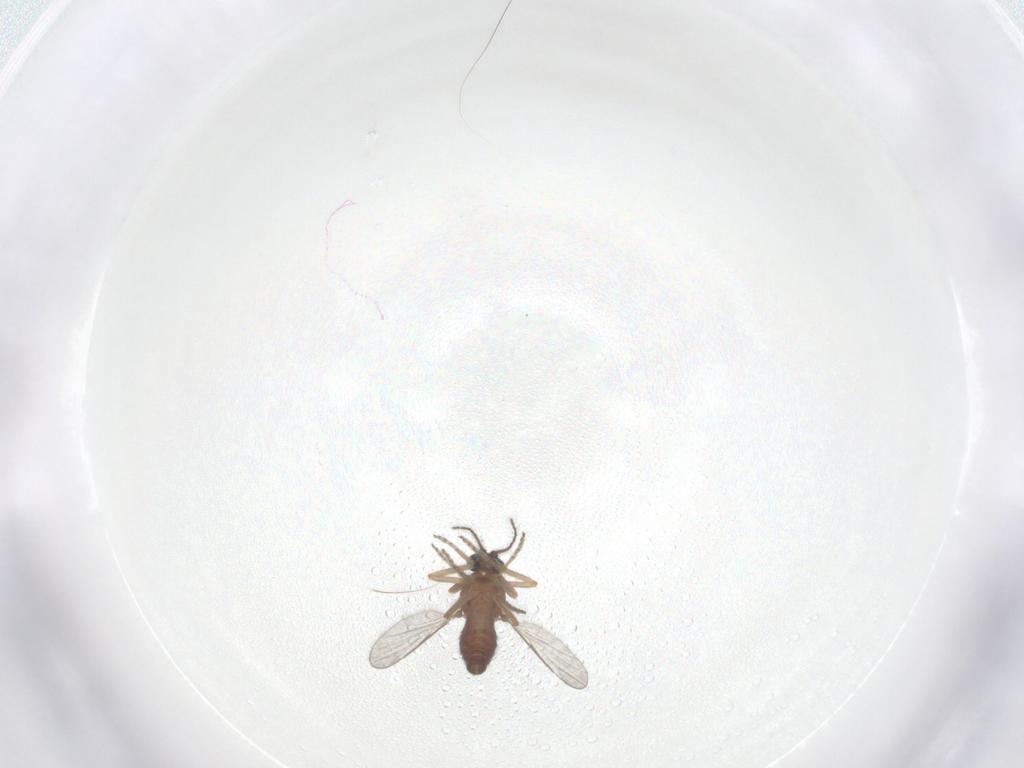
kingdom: Animalia
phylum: Arthropoda
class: Insecta
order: Diptera
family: Ceratopogonidae
